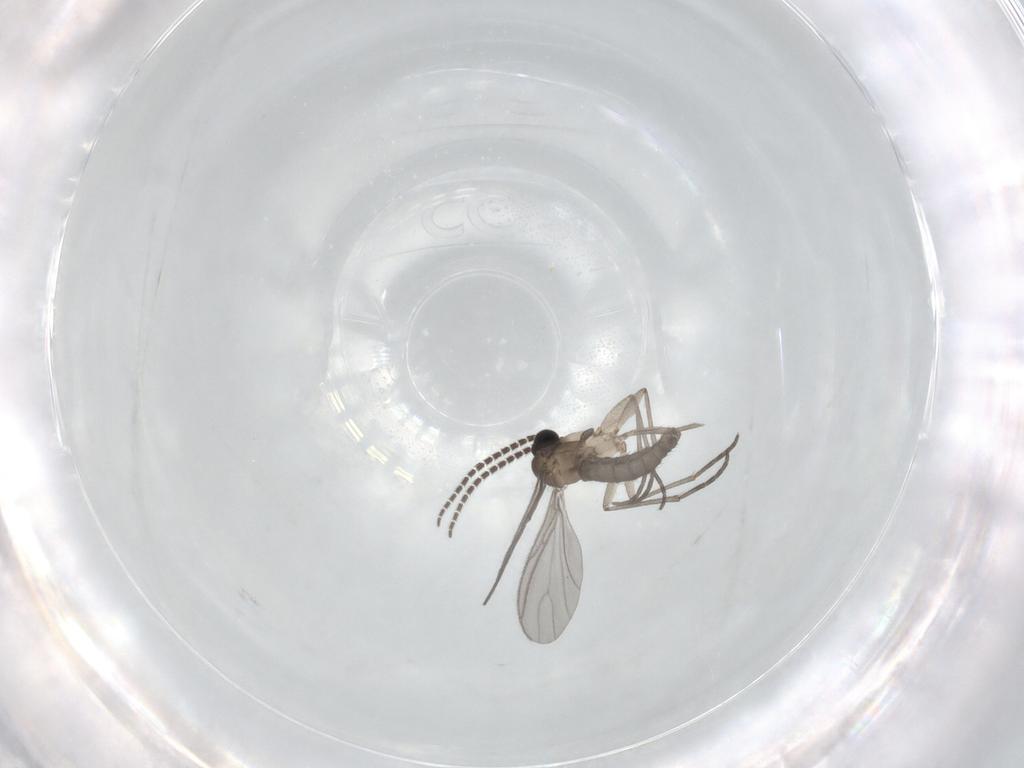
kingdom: Animalia
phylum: Arthropoda
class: Insecta
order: Diptera
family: Sciaridae
